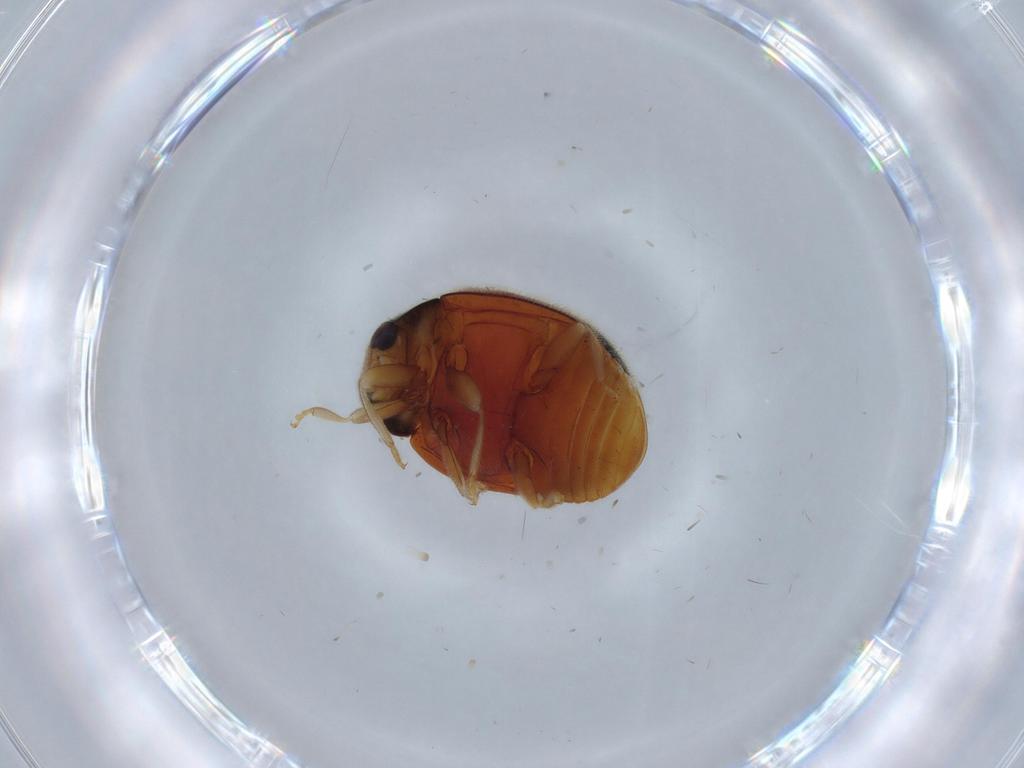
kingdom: Animalia
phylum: Arthropoda
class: Insecta
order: Coleoptera
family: Coccinellidae
